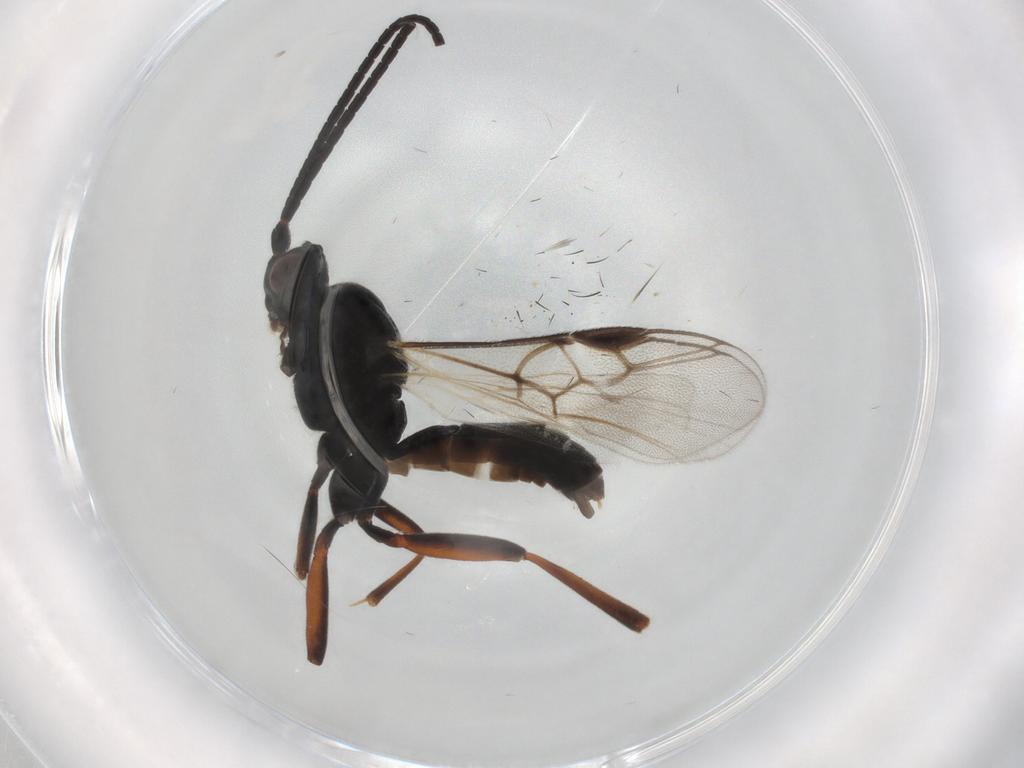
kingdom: Animalia
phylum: Arthropoda
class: Insecta
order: Hymenoptera
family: Braconidae
